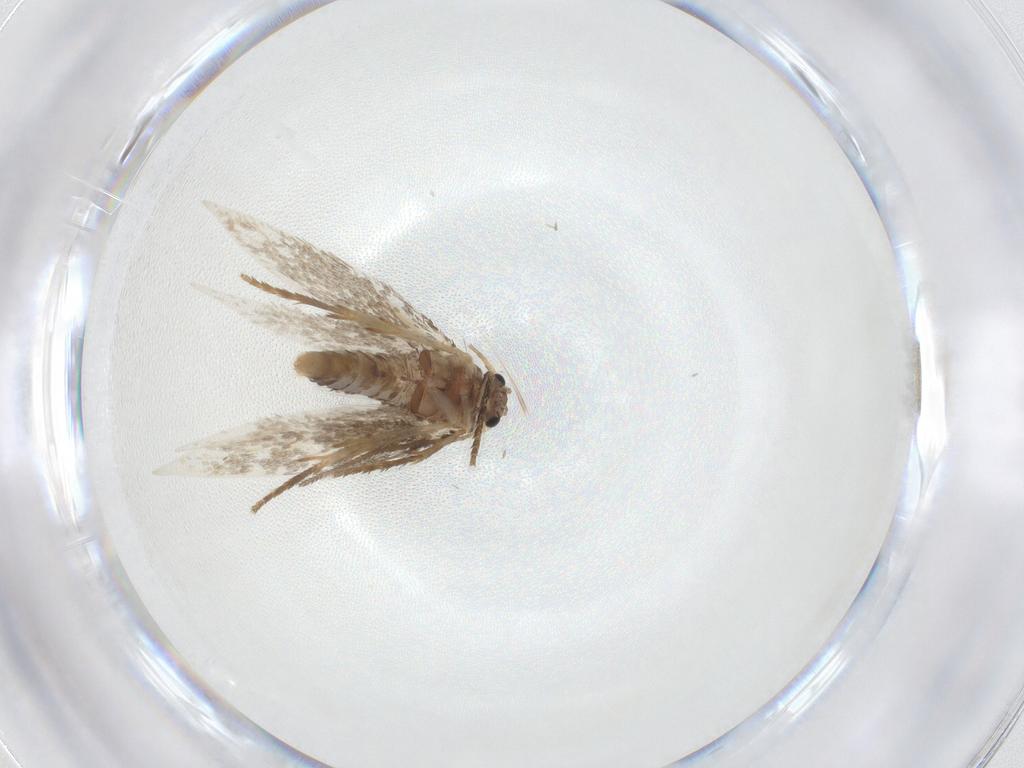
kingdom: Animalia
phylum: Arthropoda
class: Insecta
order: Lepidoptera
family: Nepticulidae
